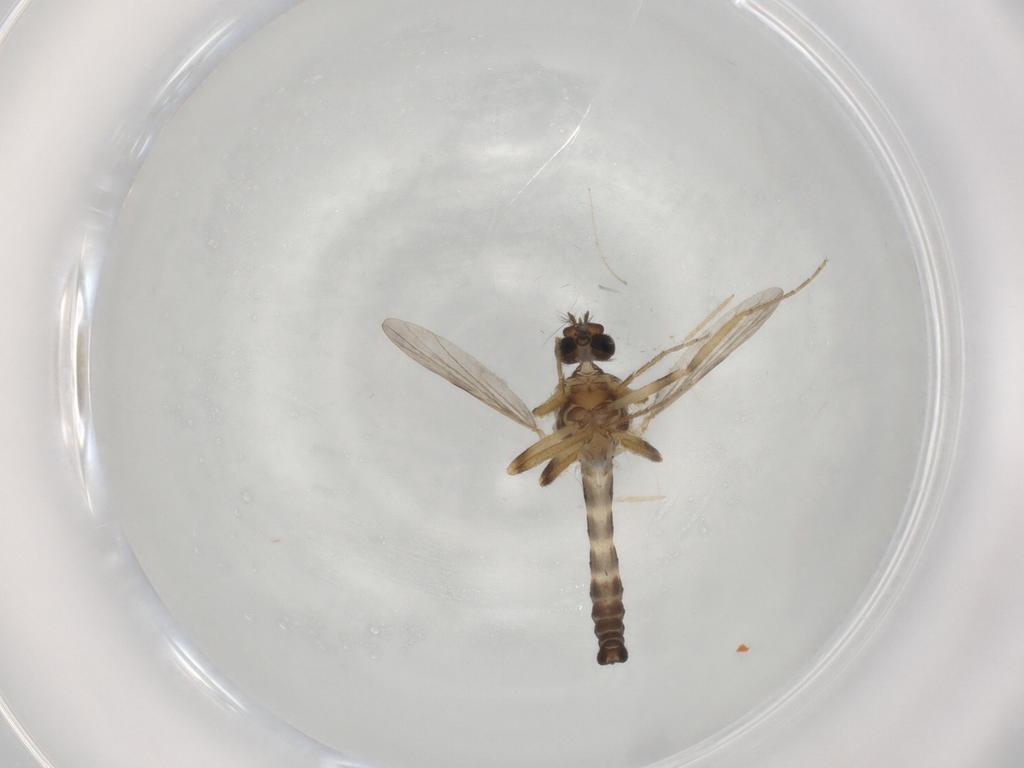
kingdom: Animalia
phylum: Arthropoda
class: Insecta
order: Diptera
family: Ceratopogonidae
